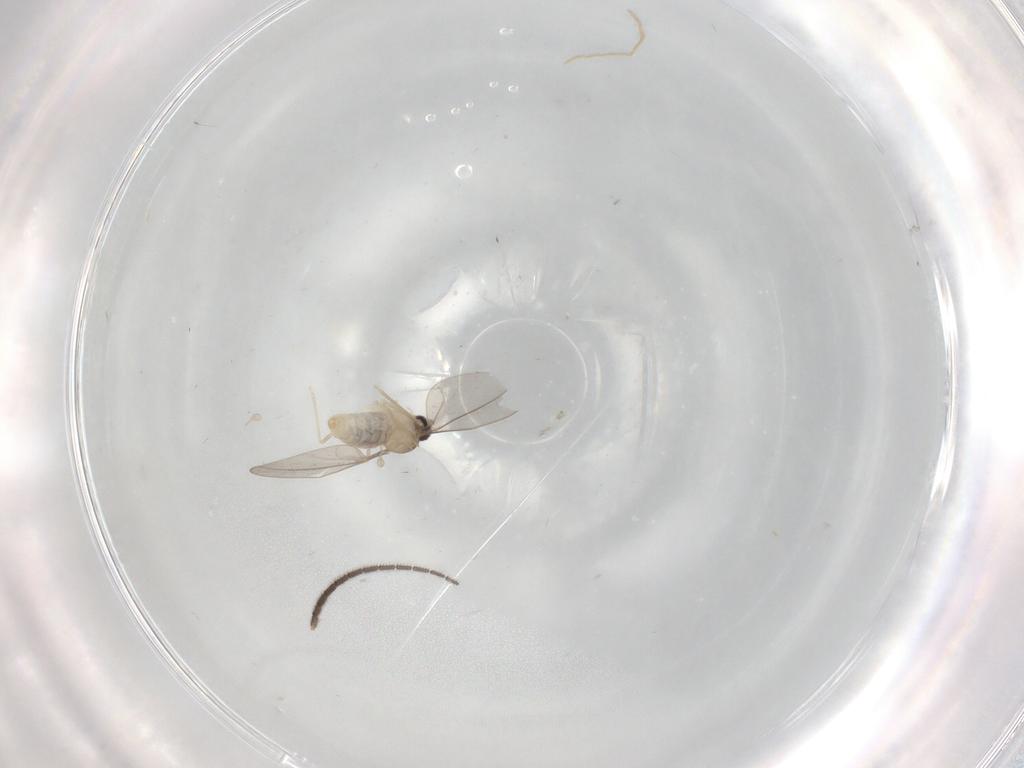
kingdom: Animalia
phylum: Arthropoda
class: Insecta
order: Diptera
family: Cecidomyiidae
